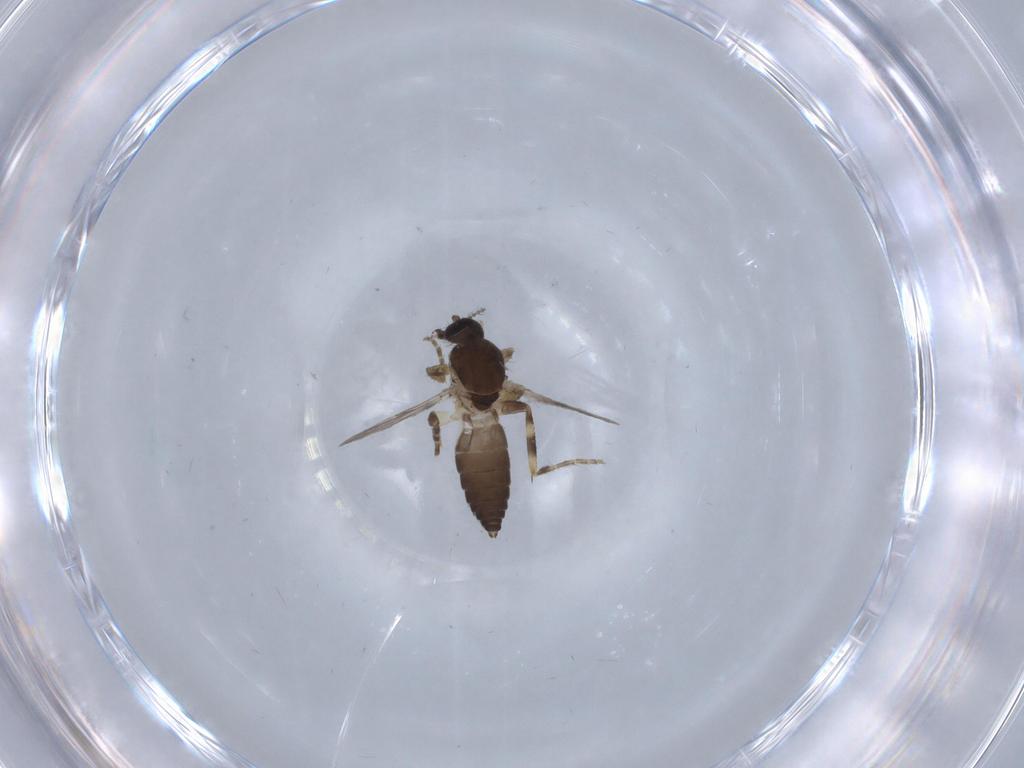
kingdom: Animalia
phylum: Arthropoda
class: Insecta
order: Diptera
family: Ceratopogonidae
